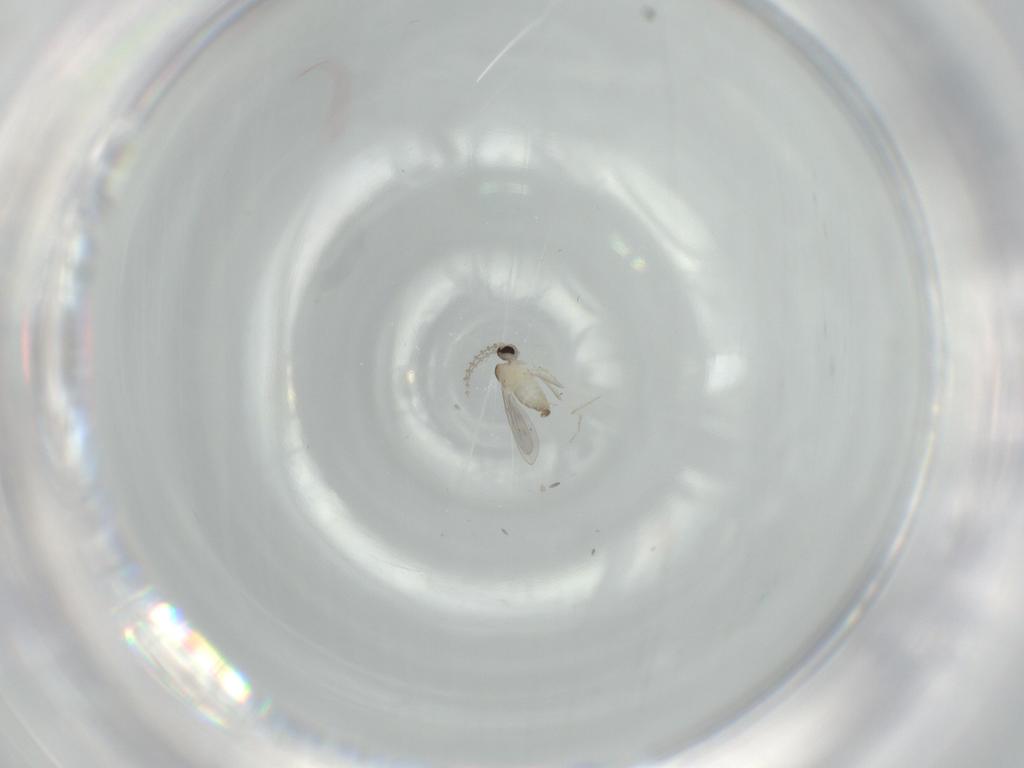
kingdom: Animalia
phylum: Arthropoda
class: Insecta
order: Diptera
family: Cecidomyiidae
